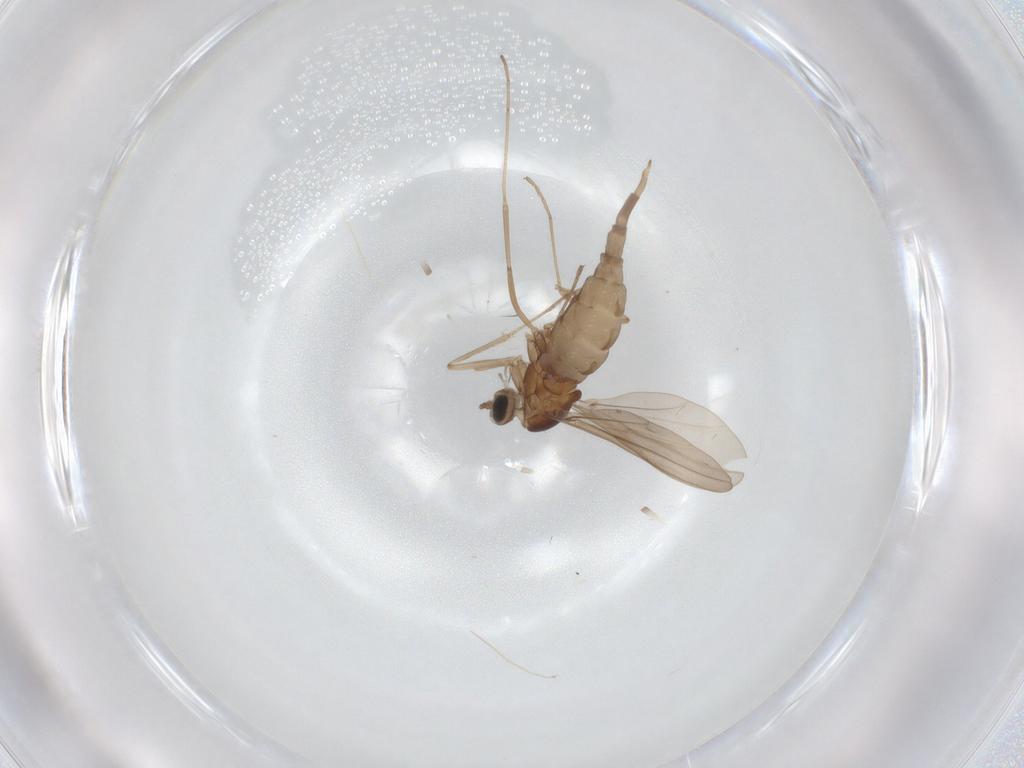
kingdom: Animalia
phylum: Arthropoda
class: Insecta
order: Diptera
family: Cecidomyiidae
